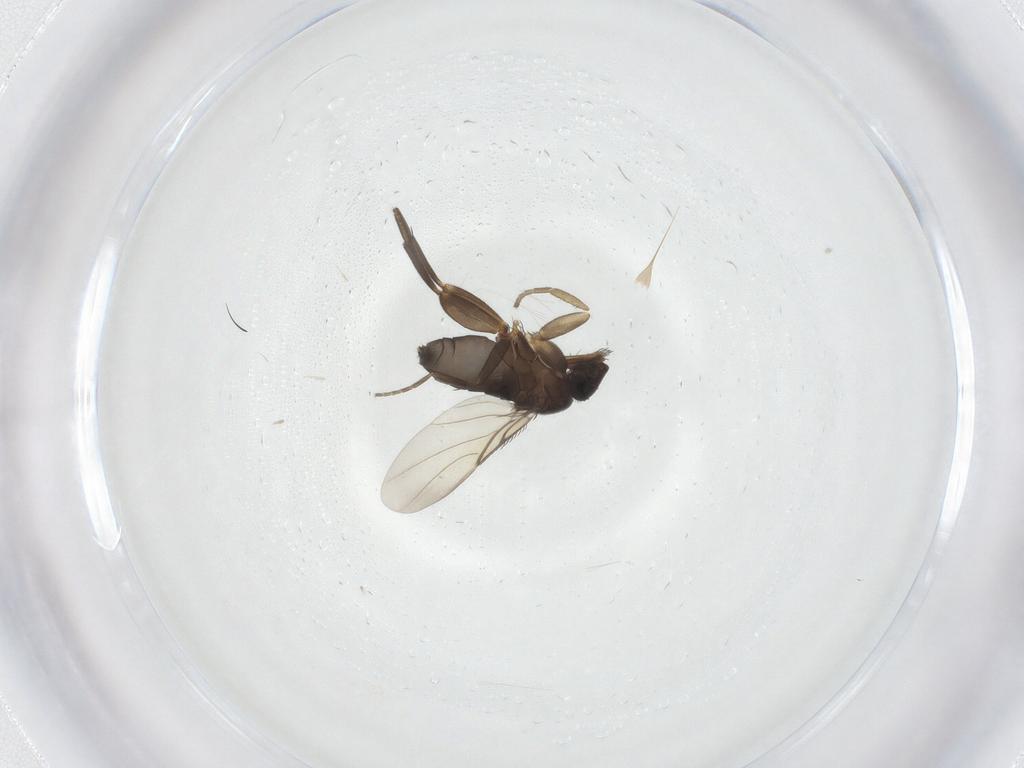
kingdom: Animalia
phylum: Arthropoda
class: Insecta
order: Diptera
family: Phoridae
